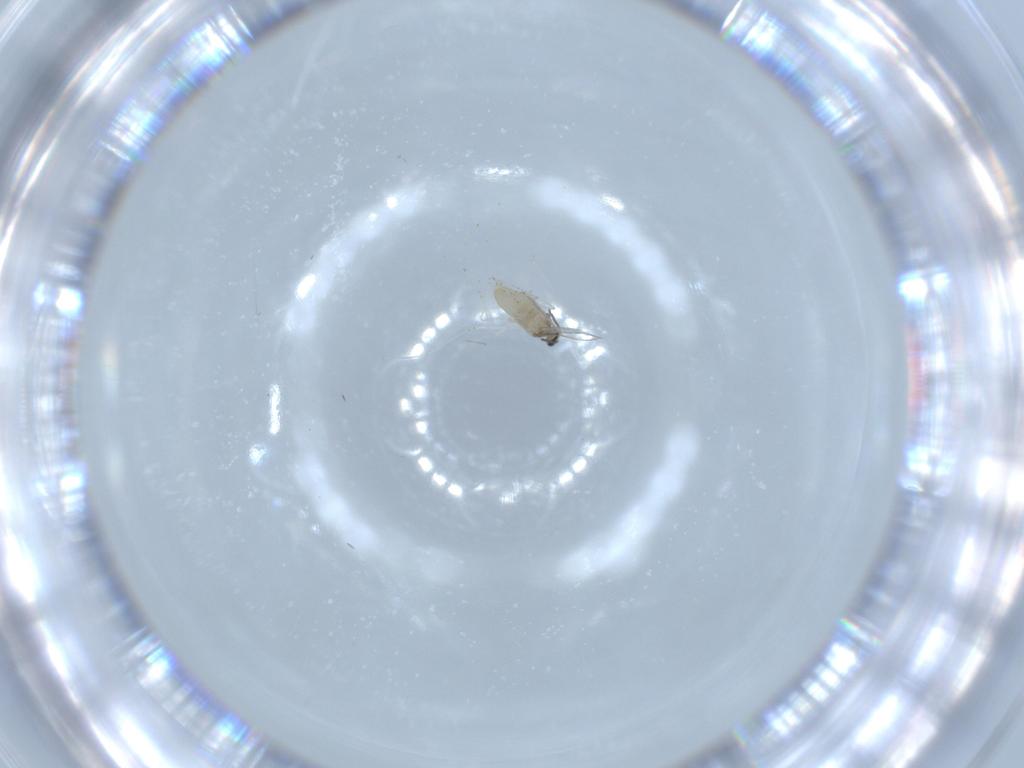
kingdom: Animalia
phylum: Arthropoda
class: Insecta
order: Diptera
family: Cecidomyiidae
